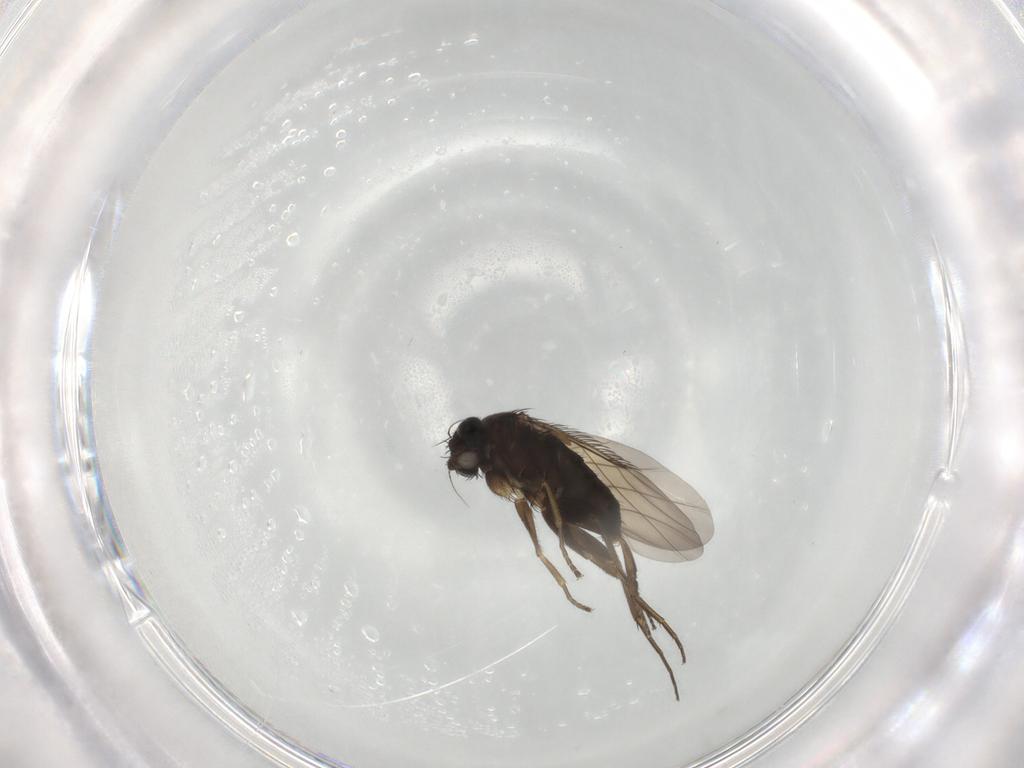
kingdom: Animalia
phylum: Arthropoda
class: Insecta
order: Diptera
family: Phoridae
